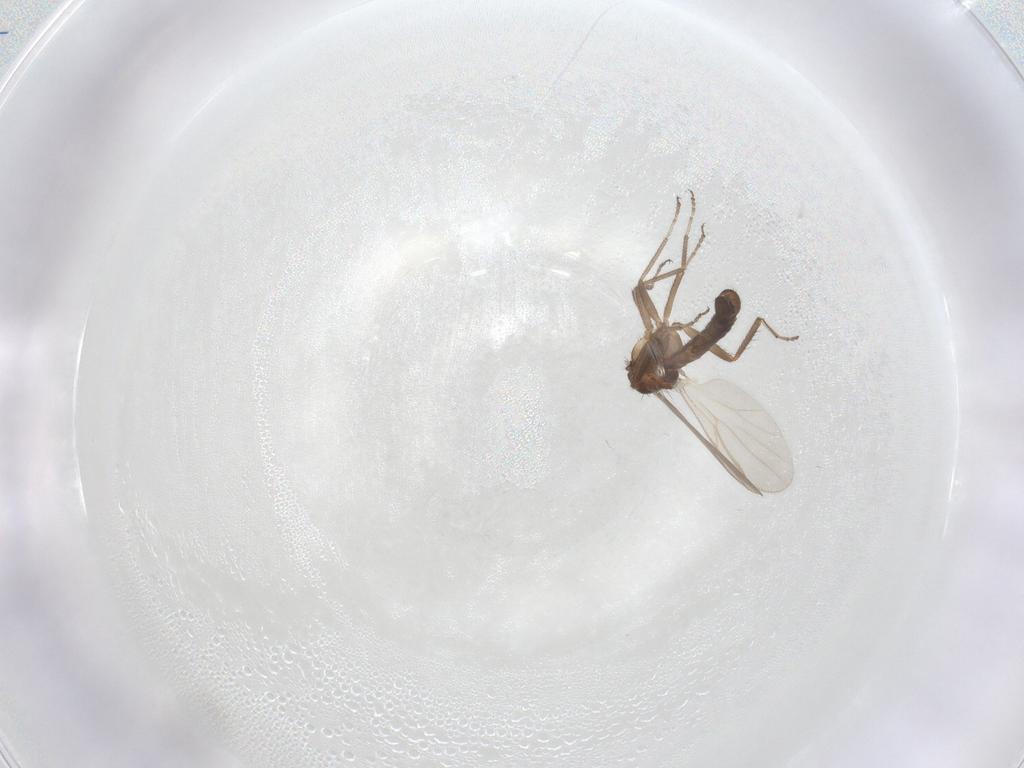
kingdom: Animalia
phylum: Arthropoda
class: Insecta
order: Diptera
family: Ceratopogonidae
